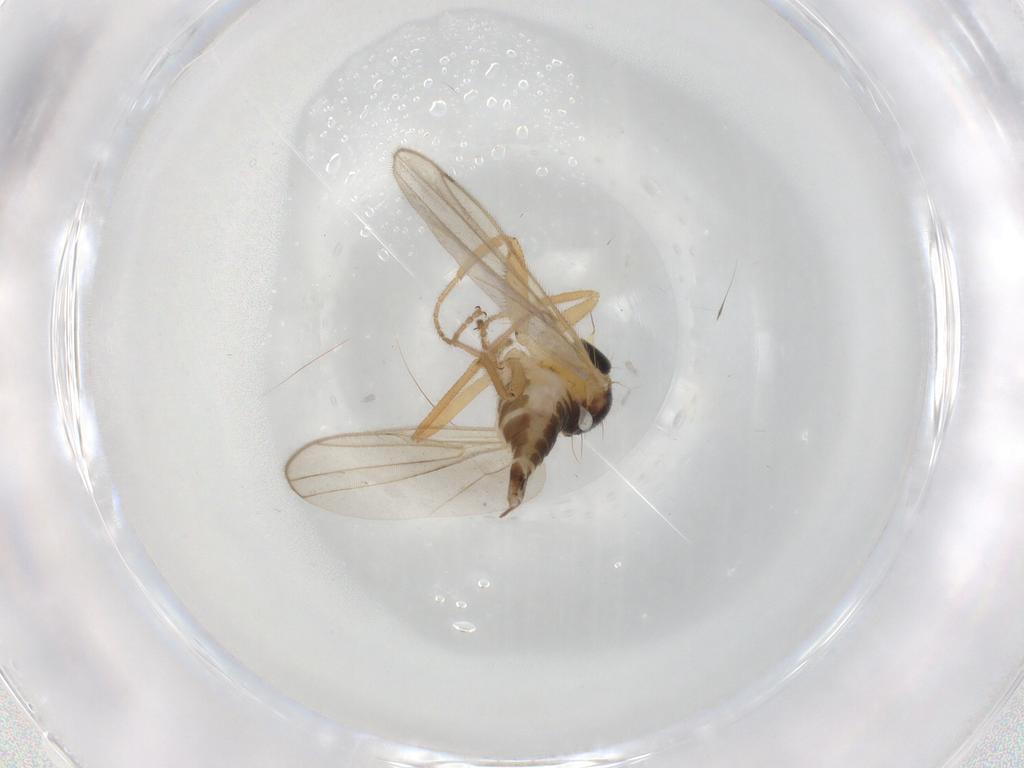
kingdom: Animalia
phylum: Arthropoda
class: Insecta
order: Diptera
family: Hybotidae
